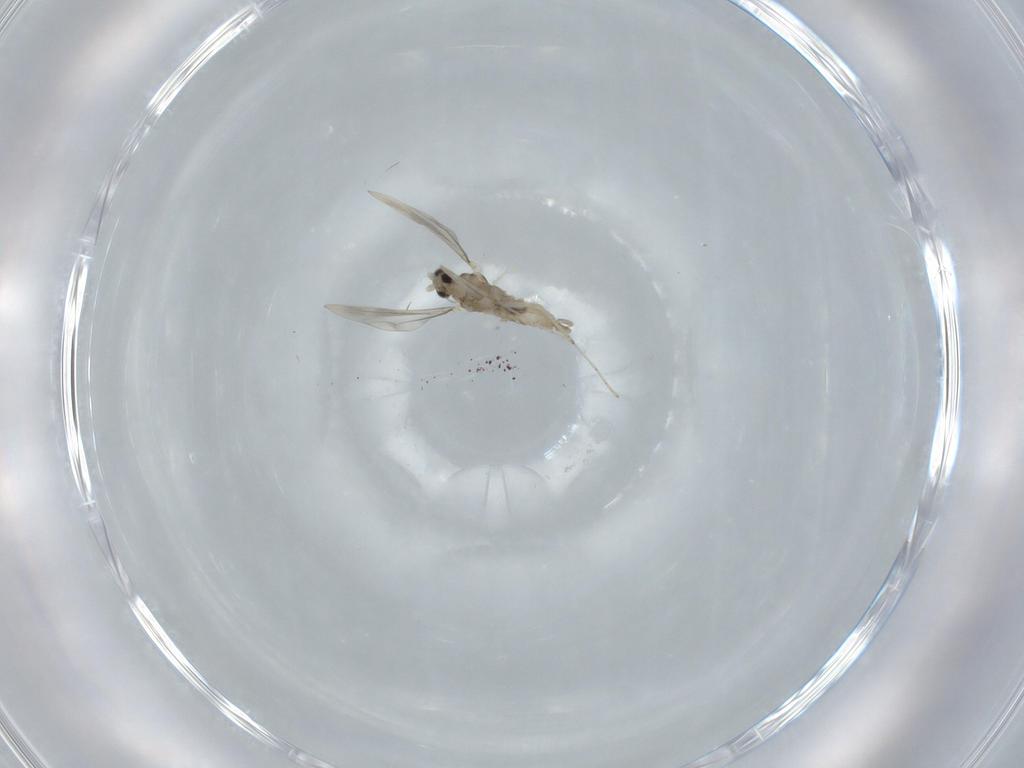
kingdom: Animalia
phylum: Arthropoda
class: Insecta
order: Diptera
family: Cecidomyiidae
